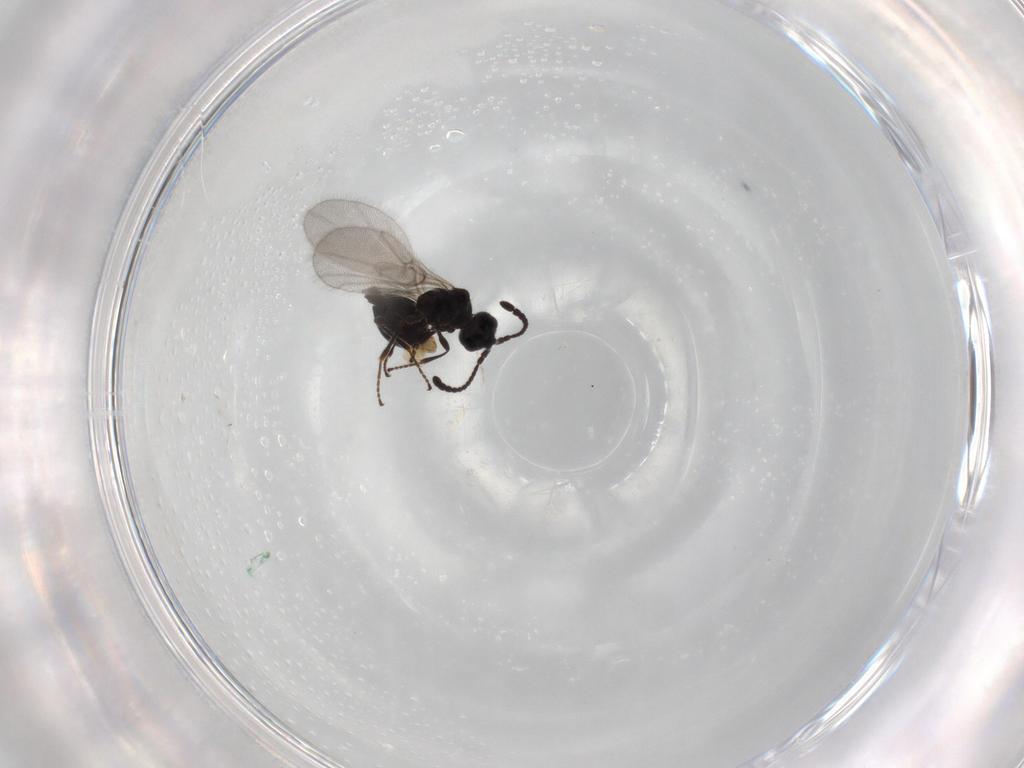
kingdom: Animalia
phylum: Arthropoda
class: Insecta
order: Hymenoptera
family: Diapriidae
